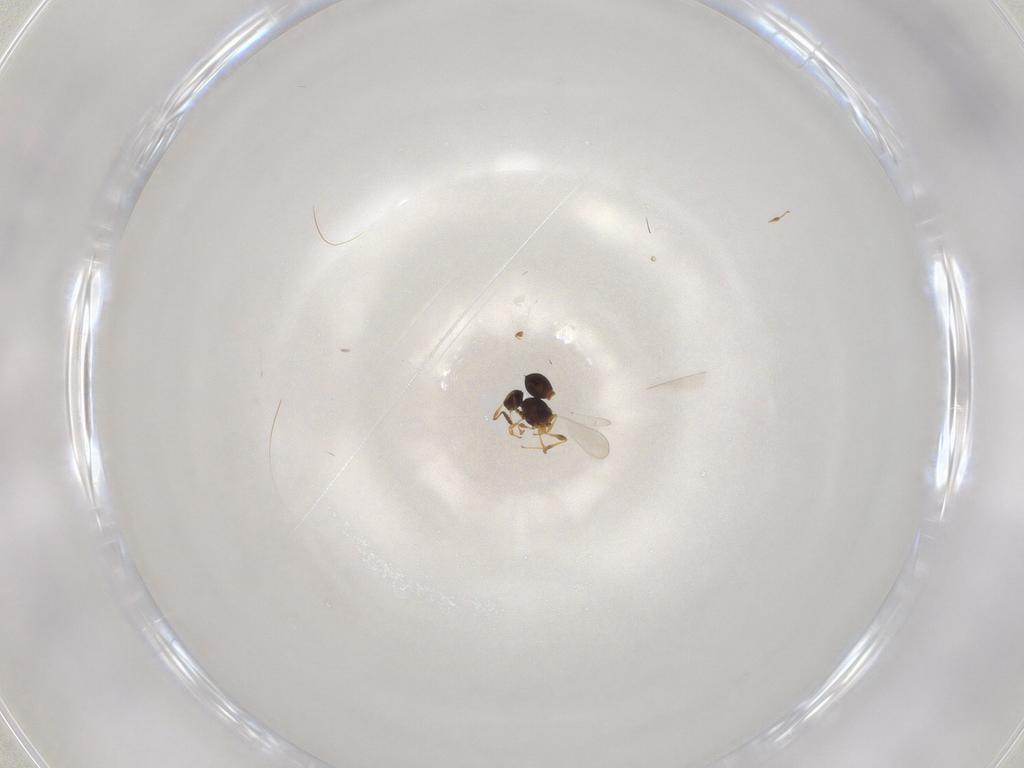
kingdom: Animalia
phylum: Arthropoda
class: Insecta
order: Hymenoptera
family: Platygastridae
